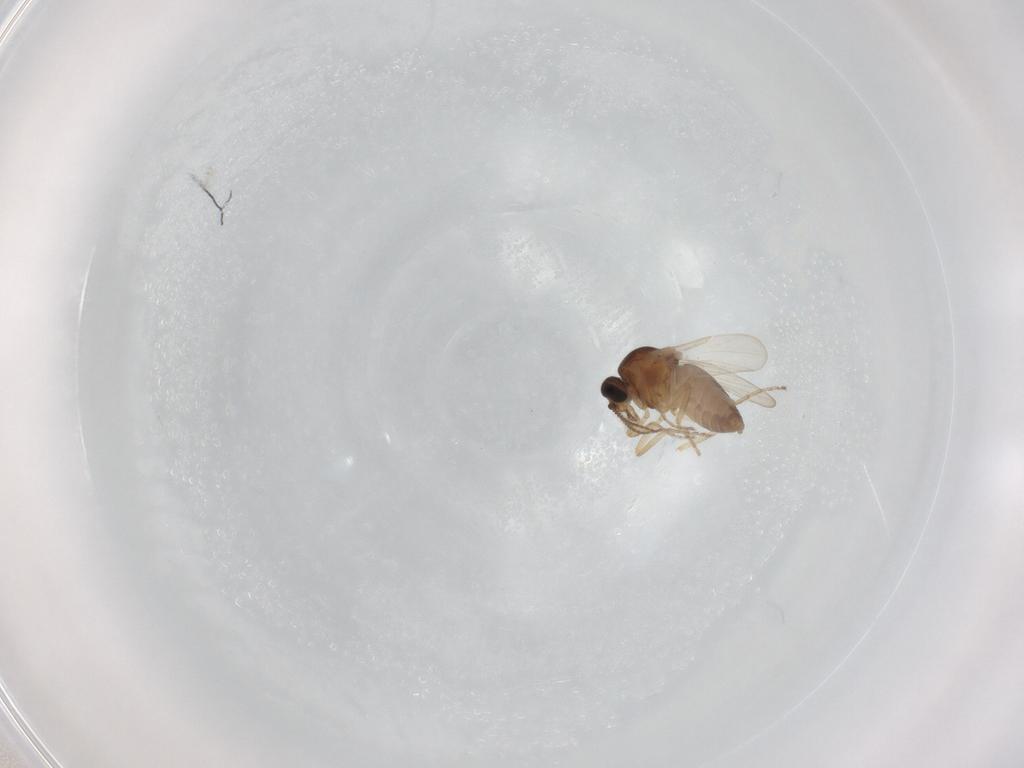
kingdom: Animalia
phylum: Arthropoda
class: Insecta
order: Diptera
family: Ceratopogonidae
